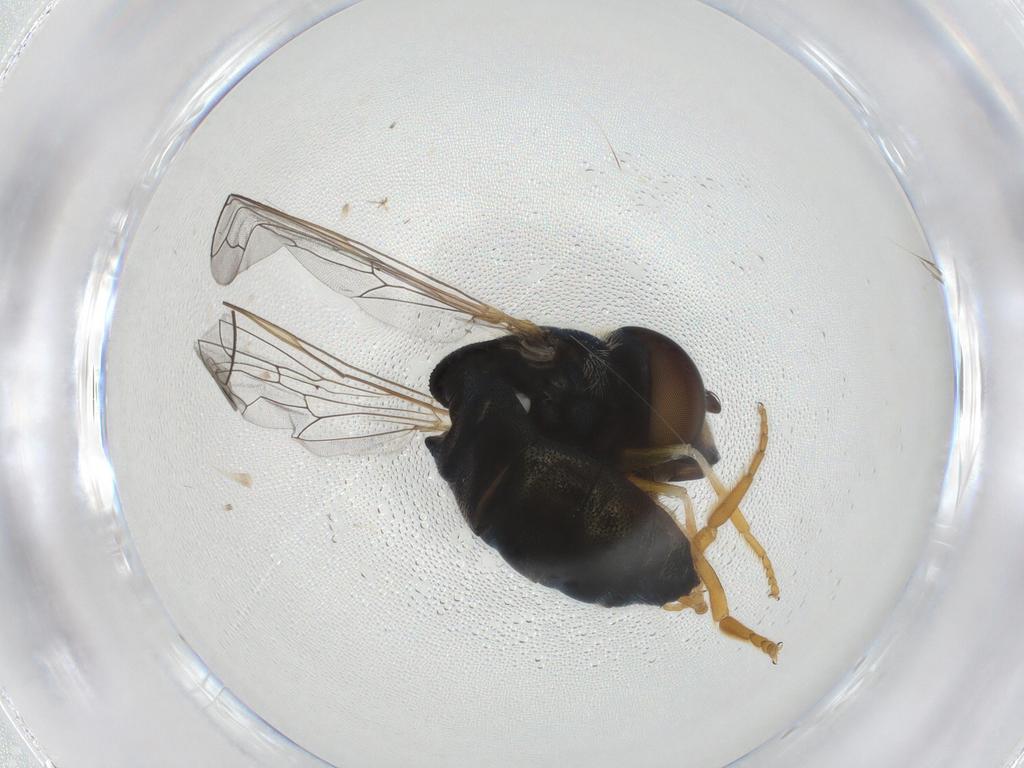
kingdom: Animalia
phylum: Arthropoda
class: Insecta
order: Diptera
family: Syrphidae
